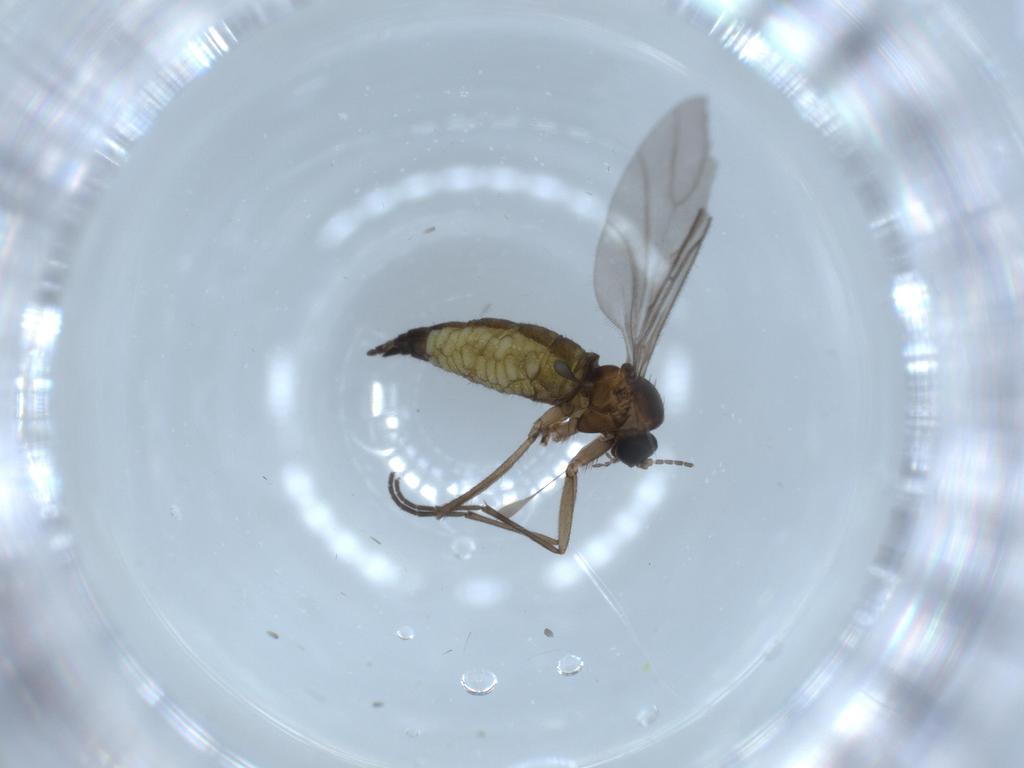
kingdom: Animalia
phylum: Arthropoda
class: Insecta
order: Diptera
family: Sciaridae
